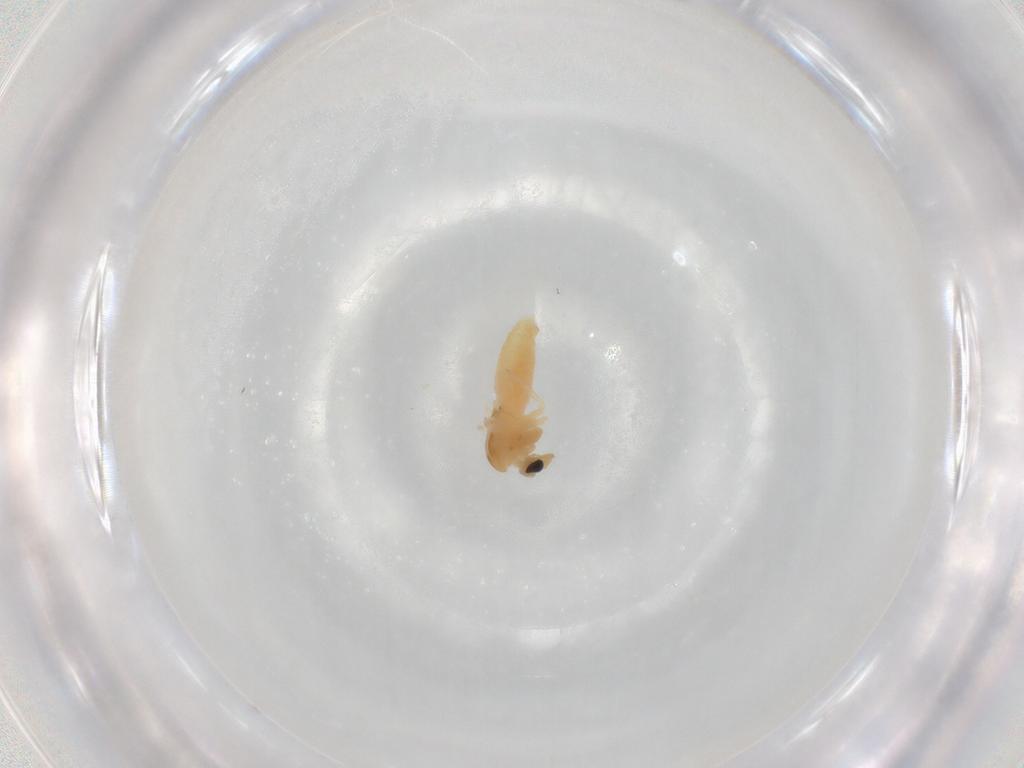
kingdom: Animalia
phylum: Arthropoda
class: Insecta
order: Diptera
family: Chironomidae
